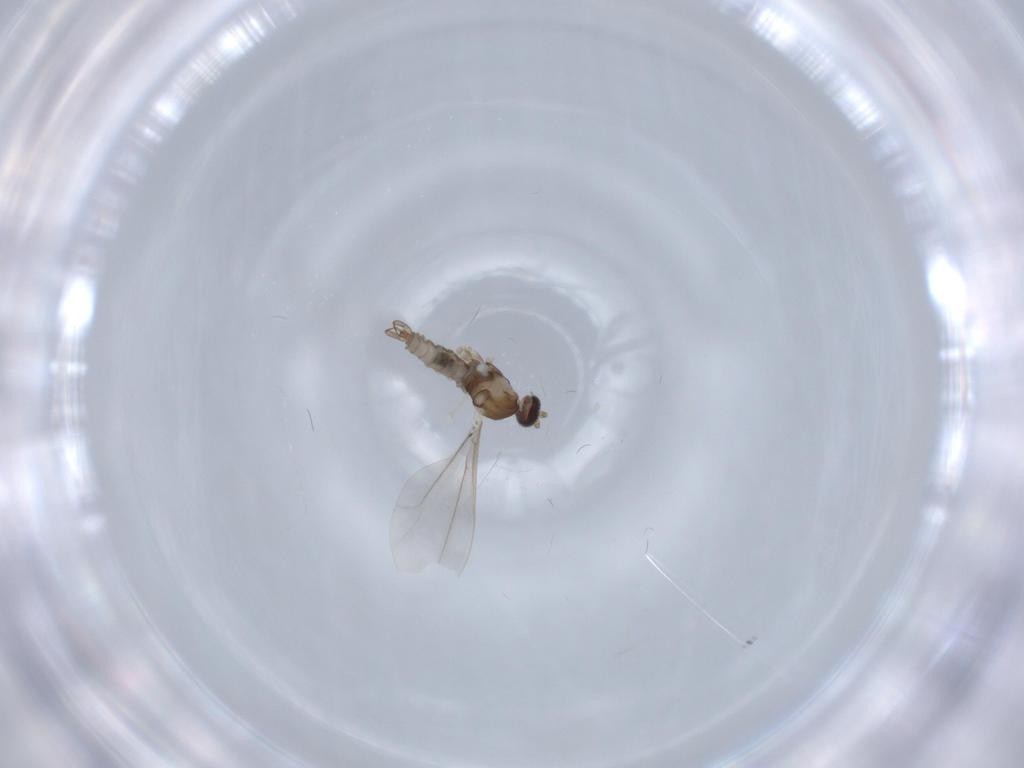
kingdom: Animalia
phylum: Arthropoda
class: Insecta
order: Diptera
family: Cecidomyiidae
